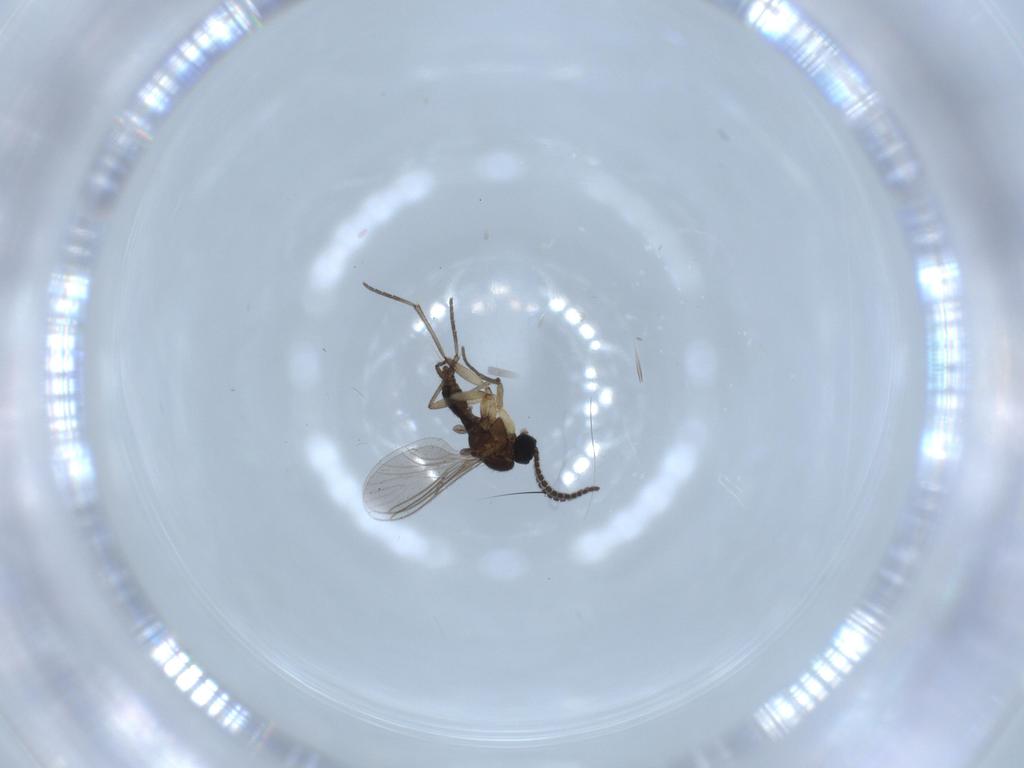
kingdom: Animalia
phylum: Arthropoda
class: Insecta
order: Diptera
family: Sciaridae
